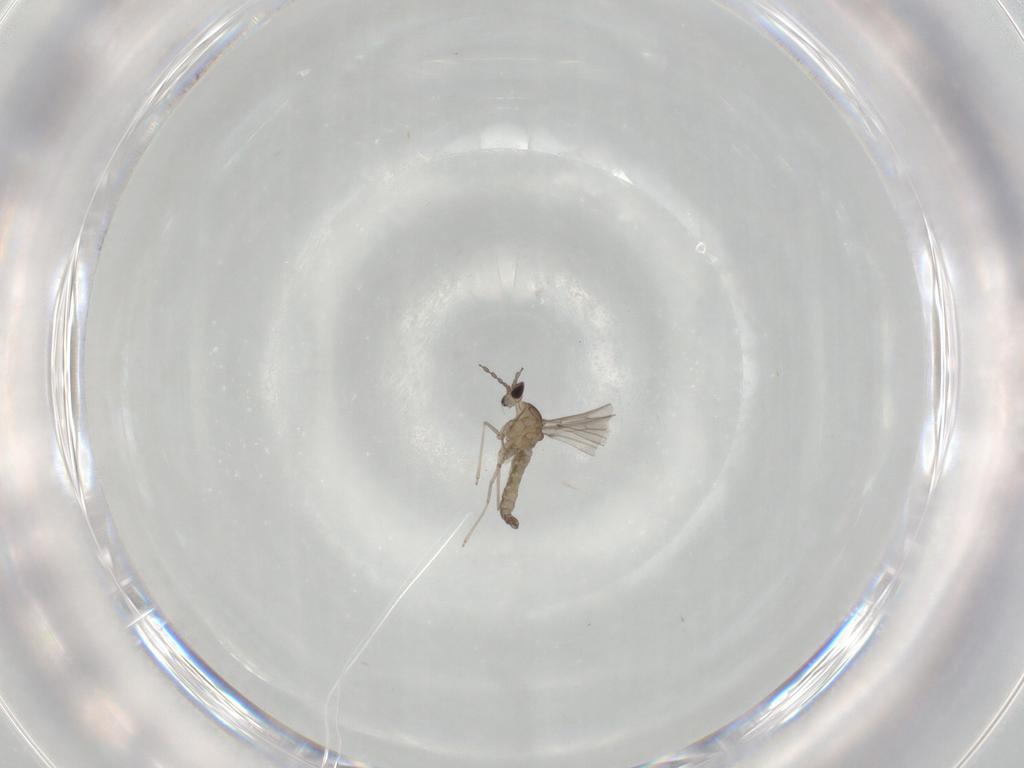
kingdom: Animalia
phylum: Arthropoda
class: Insecta
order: Diptera
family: Cecidomyiidae
